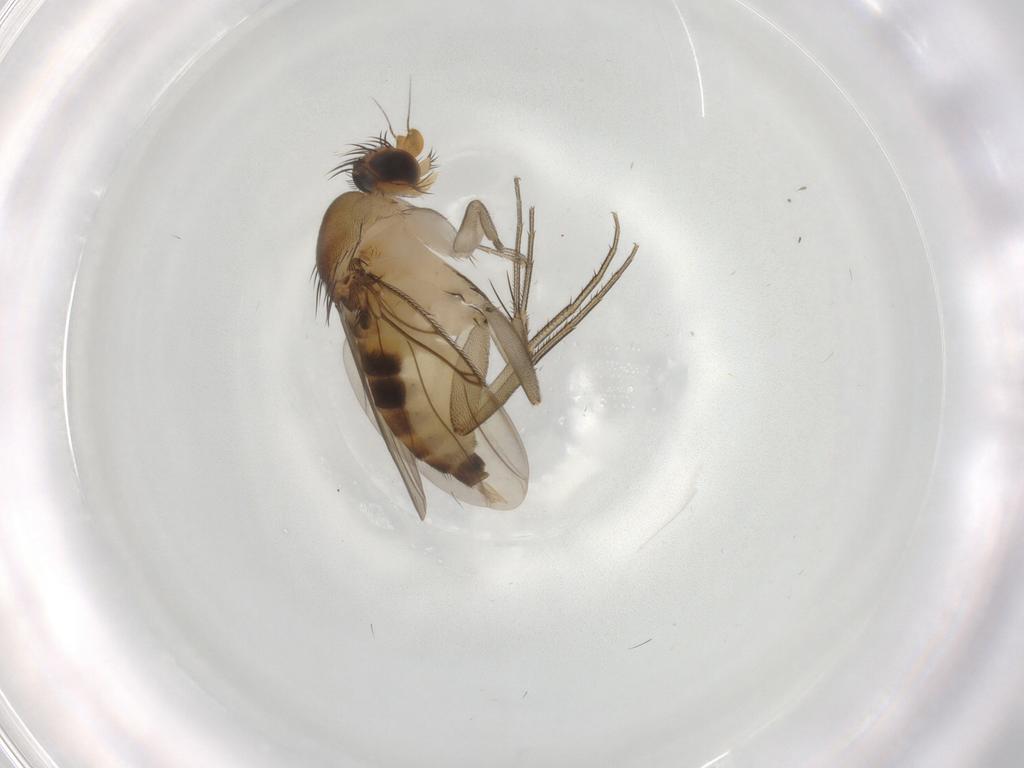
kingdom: Animalia
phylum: Arthropoda
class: Insecta
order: Diptera
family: Phoridae
